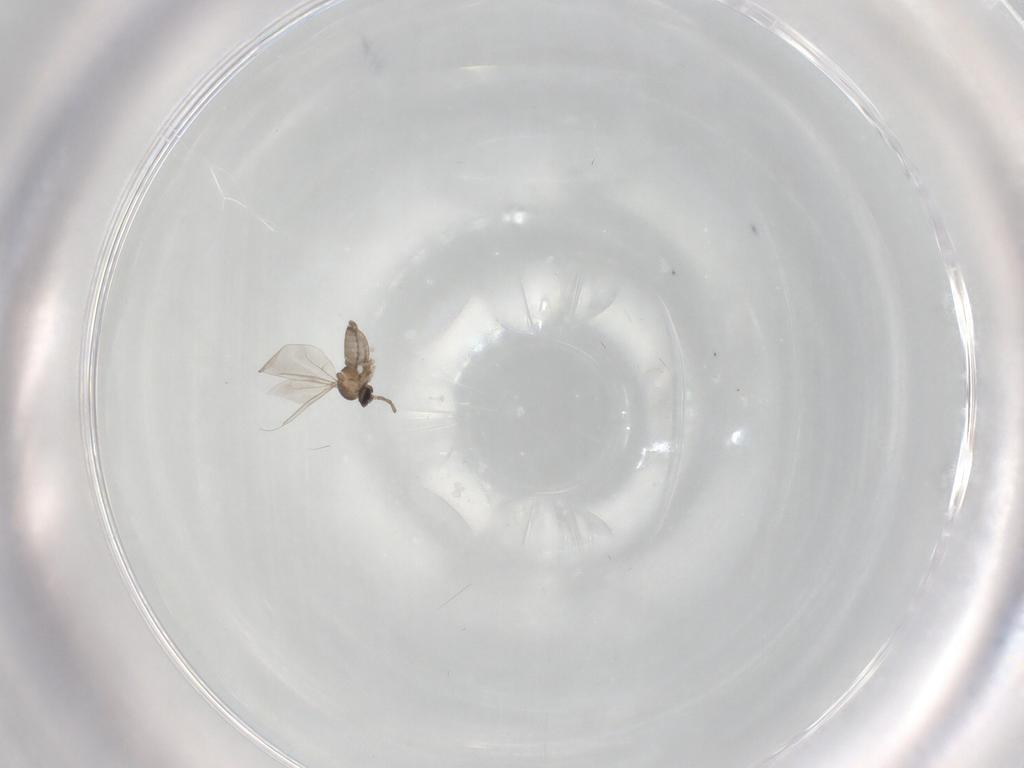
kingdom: Animalia
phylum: Arthropoda
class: Insecta
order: Diptera
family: Cecidomyiidae
